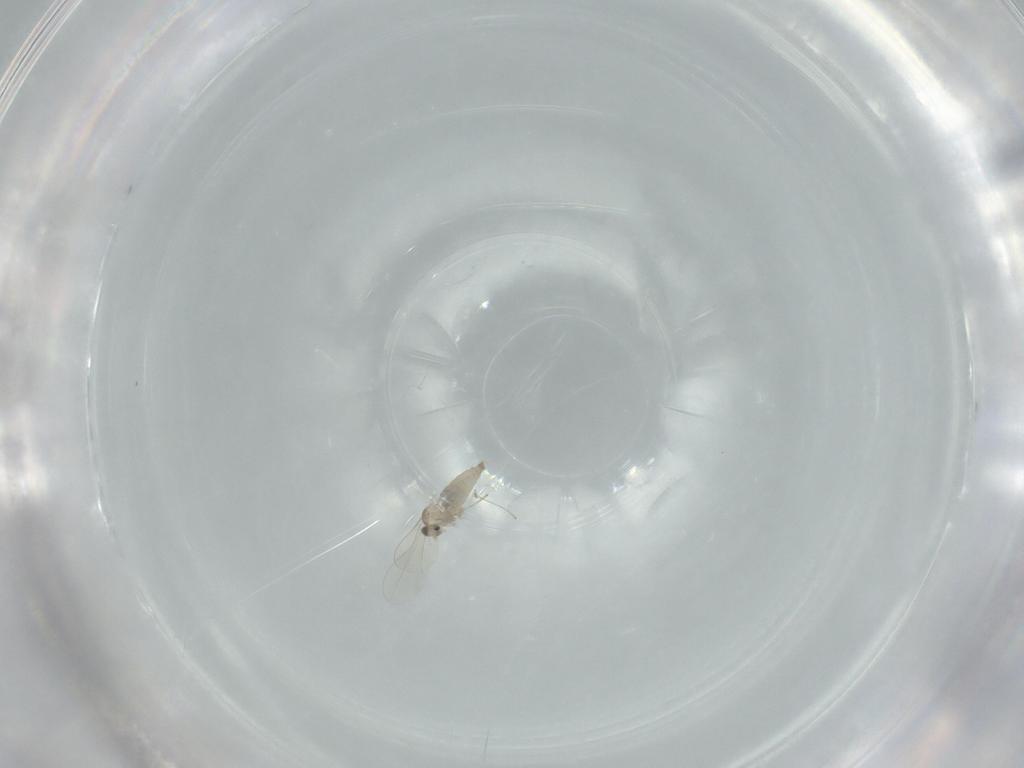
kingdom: Animalia
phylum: Arthropoda
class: Insecta
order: Diptera
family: Cecidomyiidae
